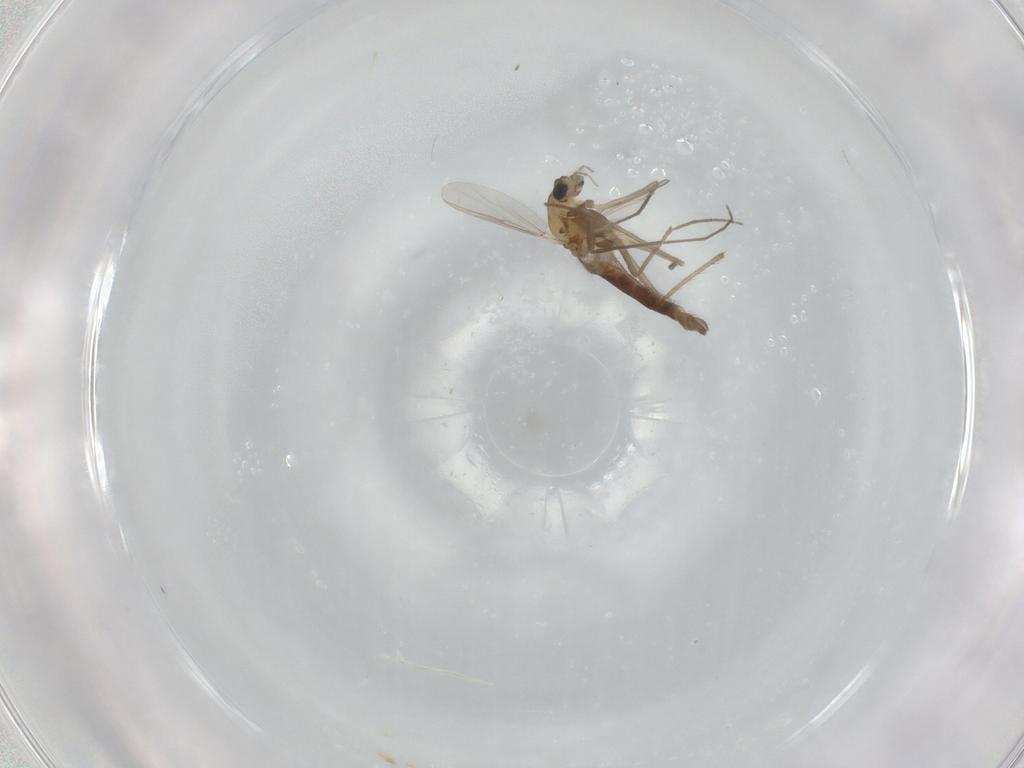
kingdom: Animalia
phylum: Arthropoda
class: Insecta
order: Diptera
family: Chironomidae
